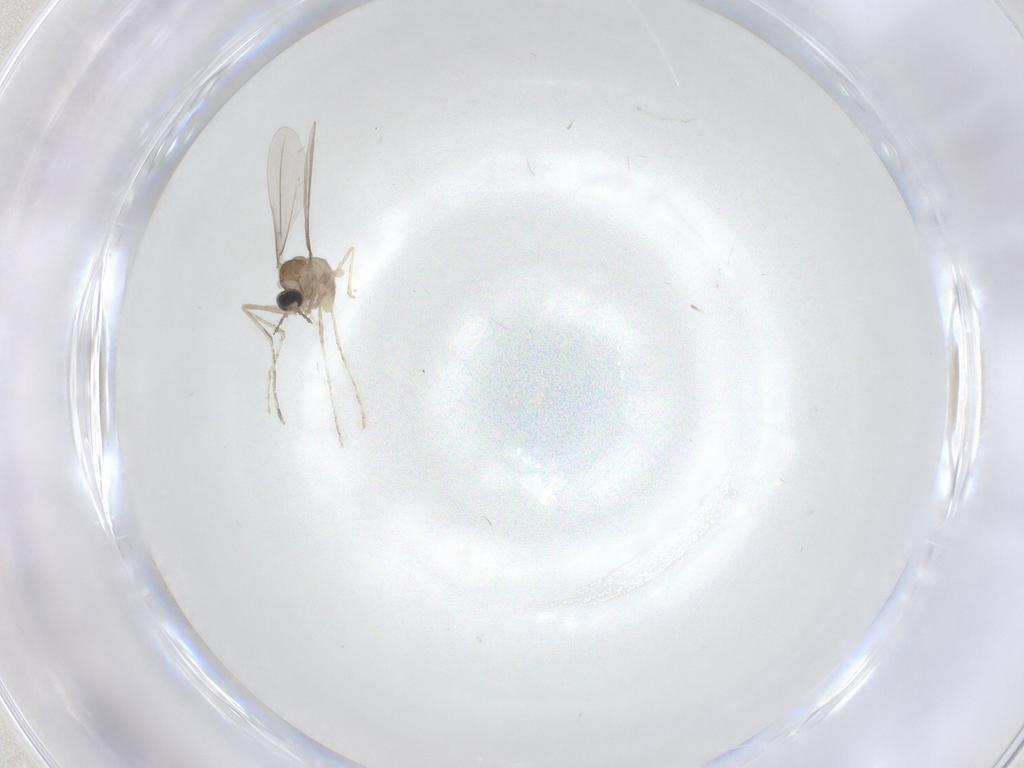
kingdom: Animalia
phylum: Arthropoda
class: Insecta
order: Diptera
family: Cecidomyiidae
